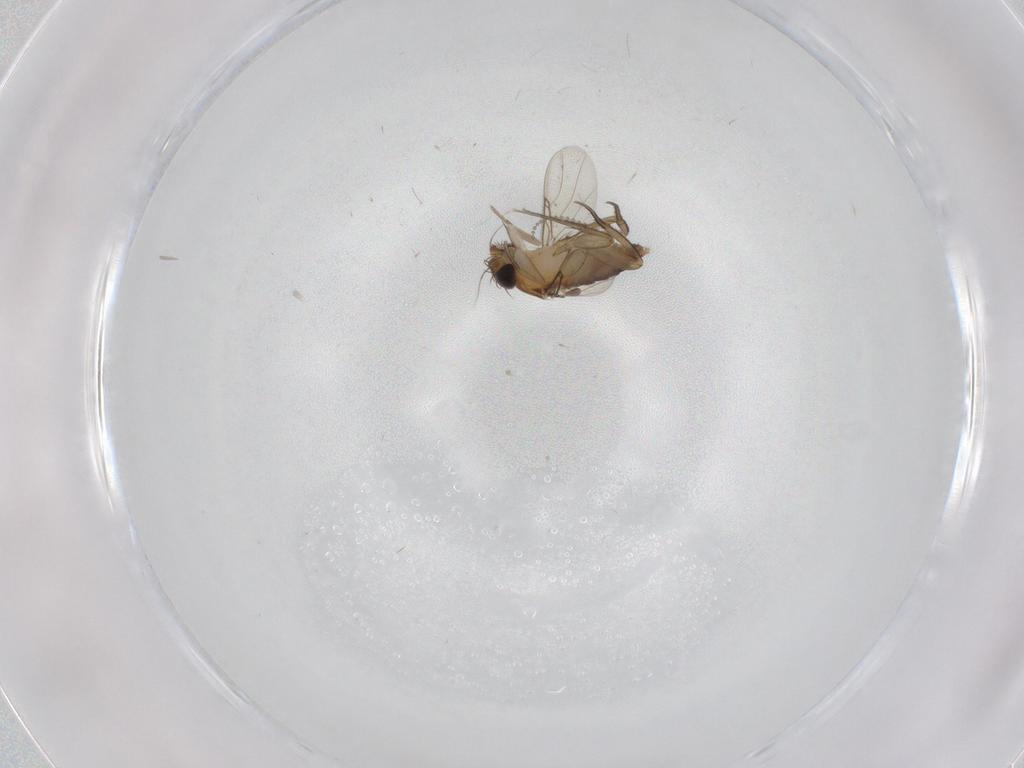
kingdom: Animalia
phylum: Arthropoda
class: Insecta
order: Diptera
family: Phoridae
